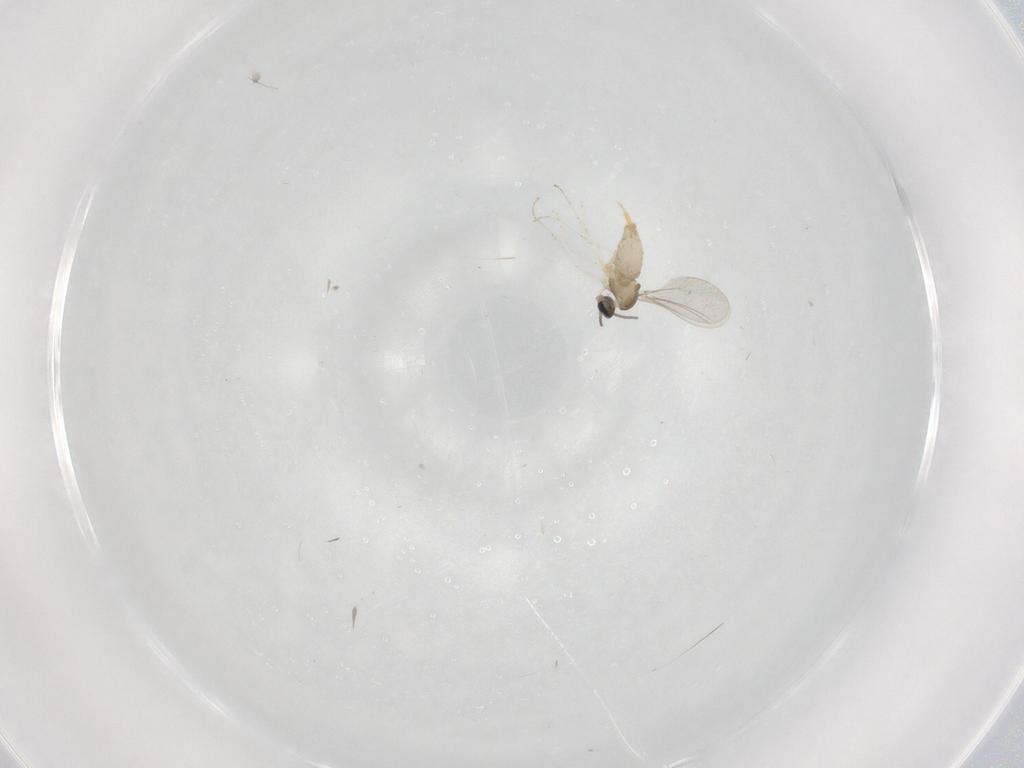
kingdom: Animalia
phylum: Arthropoda
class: Insecta
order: Diptera
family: Cecidomyiidae
